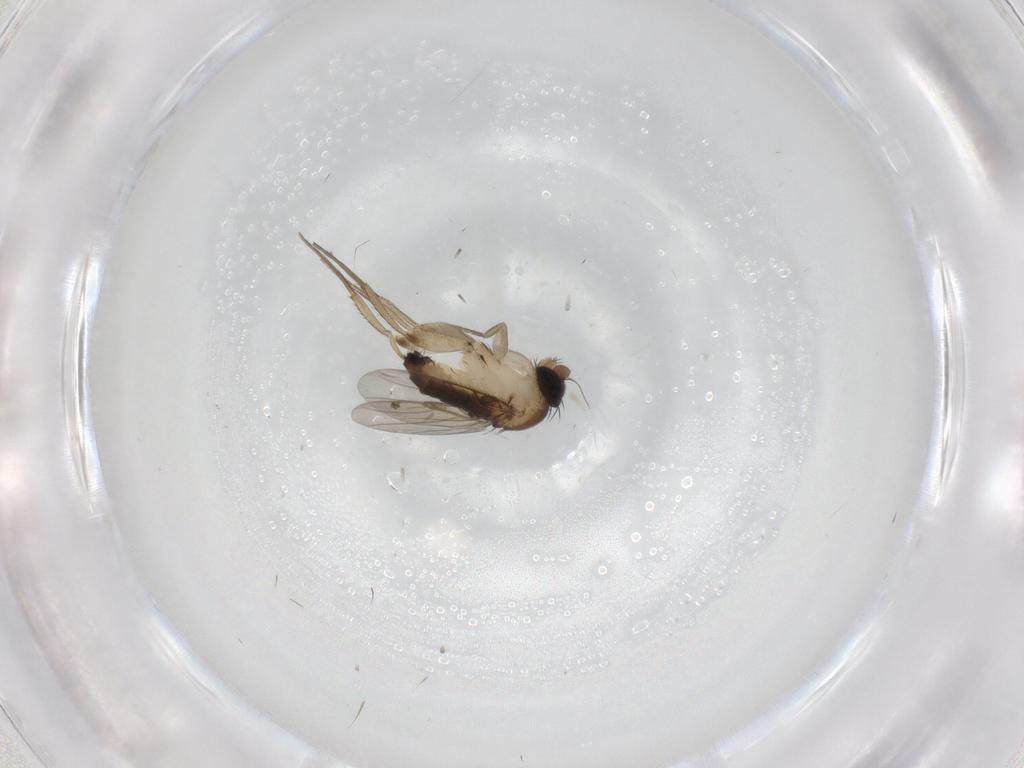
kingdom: Animalia
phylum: Arthropoda
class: Insecta
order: Diptera
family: Phoridae
